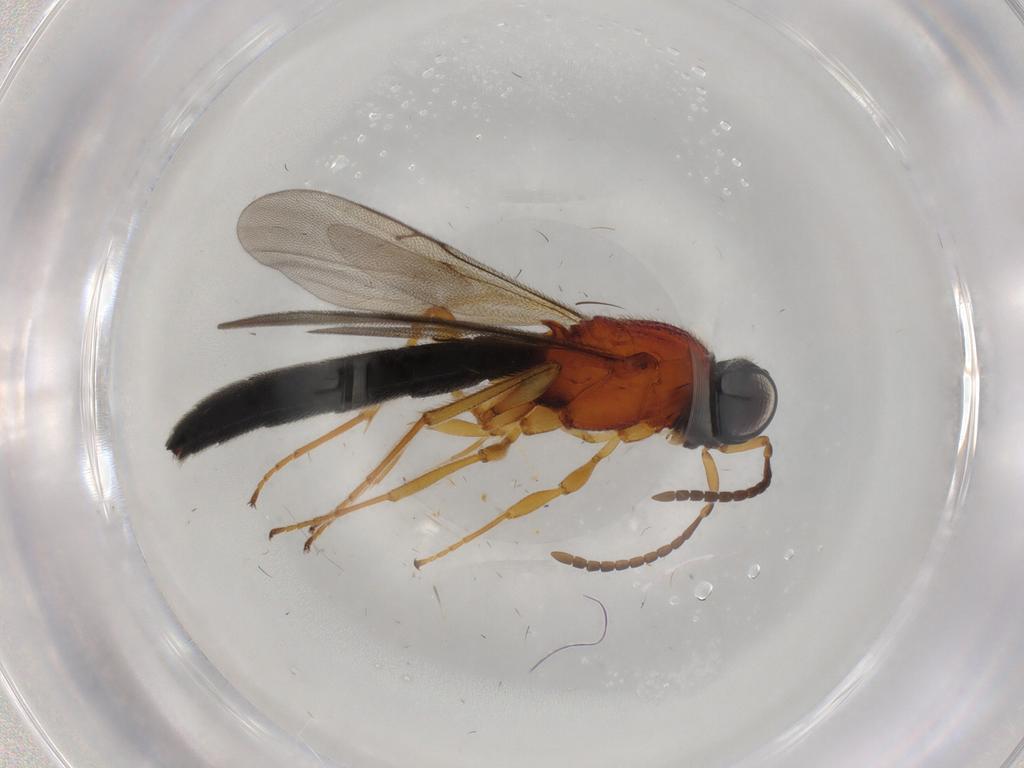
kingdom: Animalia
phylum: Arthropoda
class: Insecta
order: Hymenoptera
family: Scelionidae
